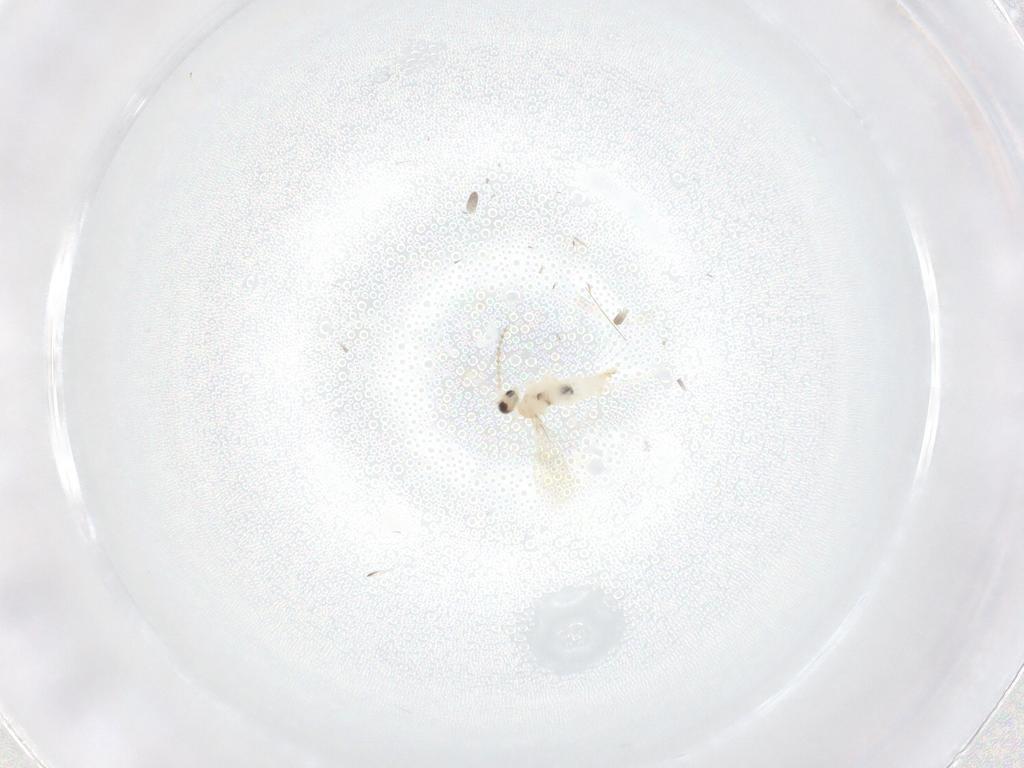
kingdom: Animalia
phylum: Arthropoda
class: Insecta
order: Diptera
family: Cecidomyiidae
